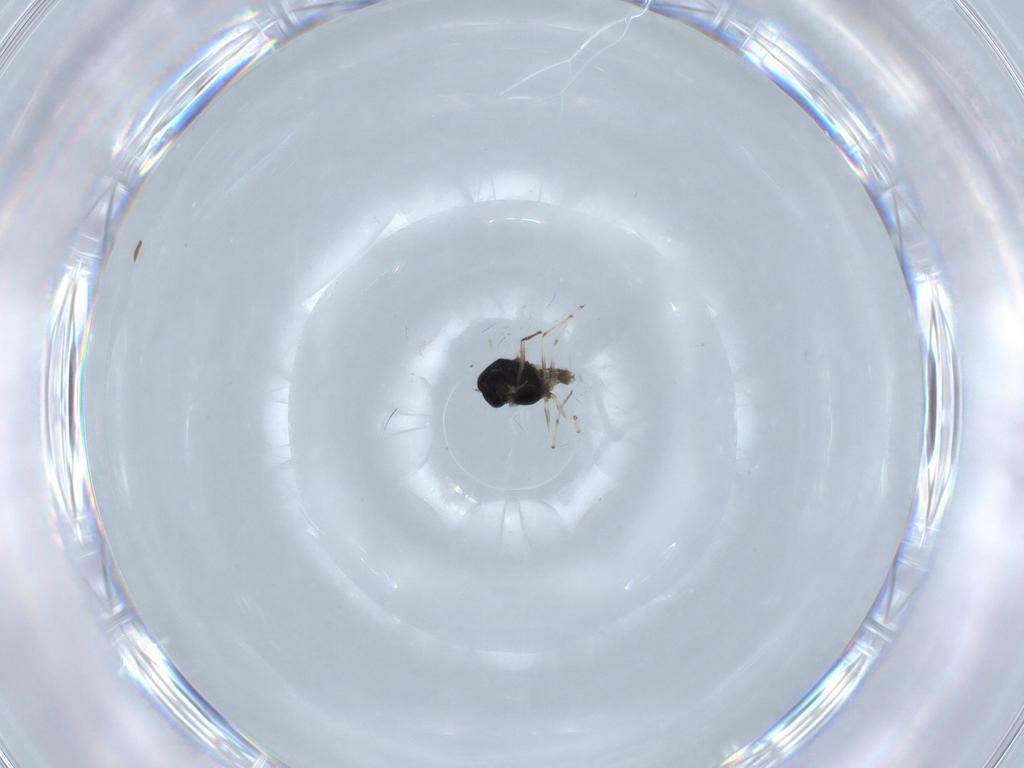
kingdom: Animalia
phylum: Arthropoda
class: Insecta
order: Diptera
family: Chironomidae
